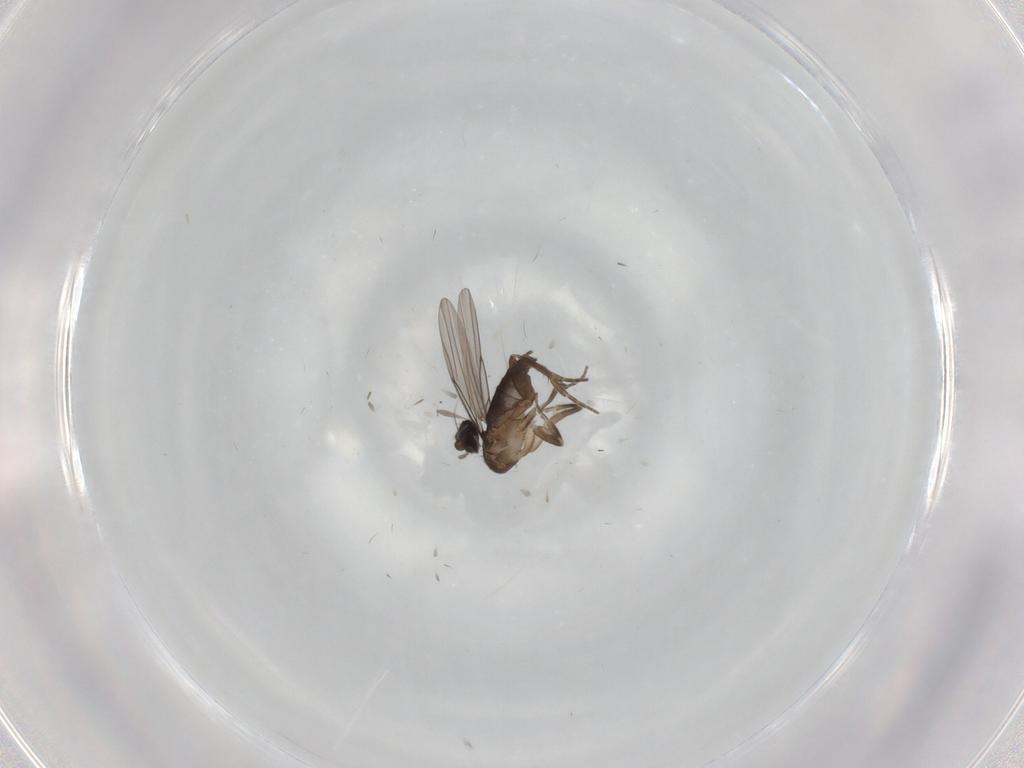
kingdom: Animalia
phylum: Arthropoda
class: Insecta
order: Diptera
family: Phoridae
